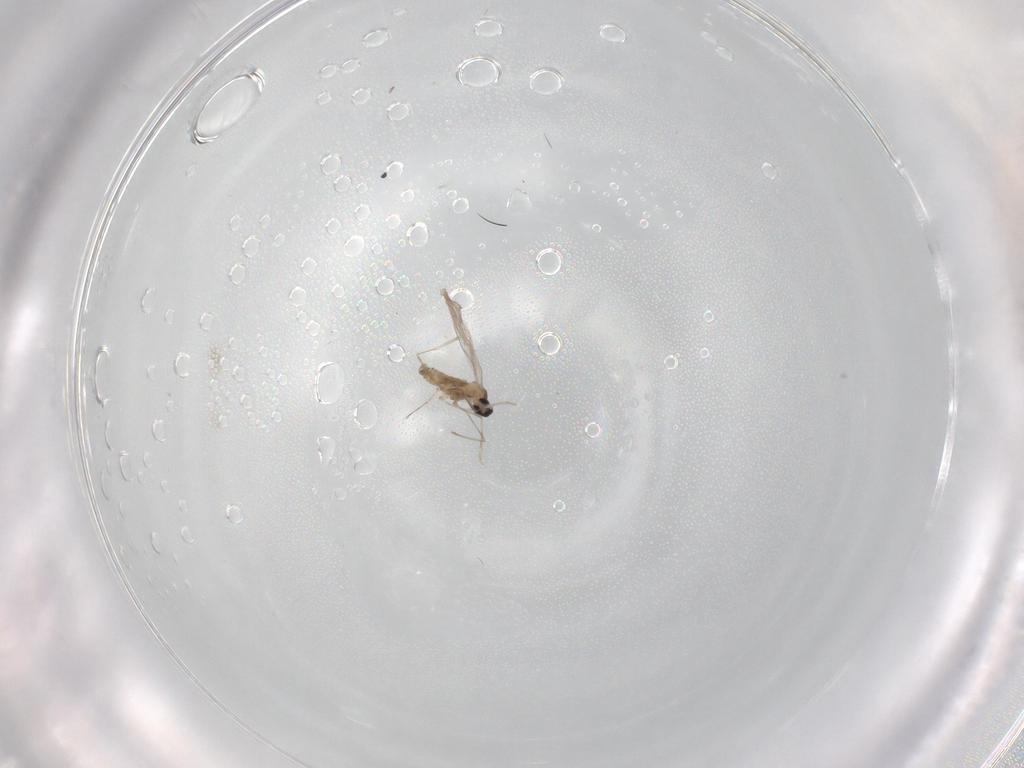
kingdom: Animalia
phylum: Arthropoda
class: Insecta
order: Diptera
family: Cecidomyiidae
